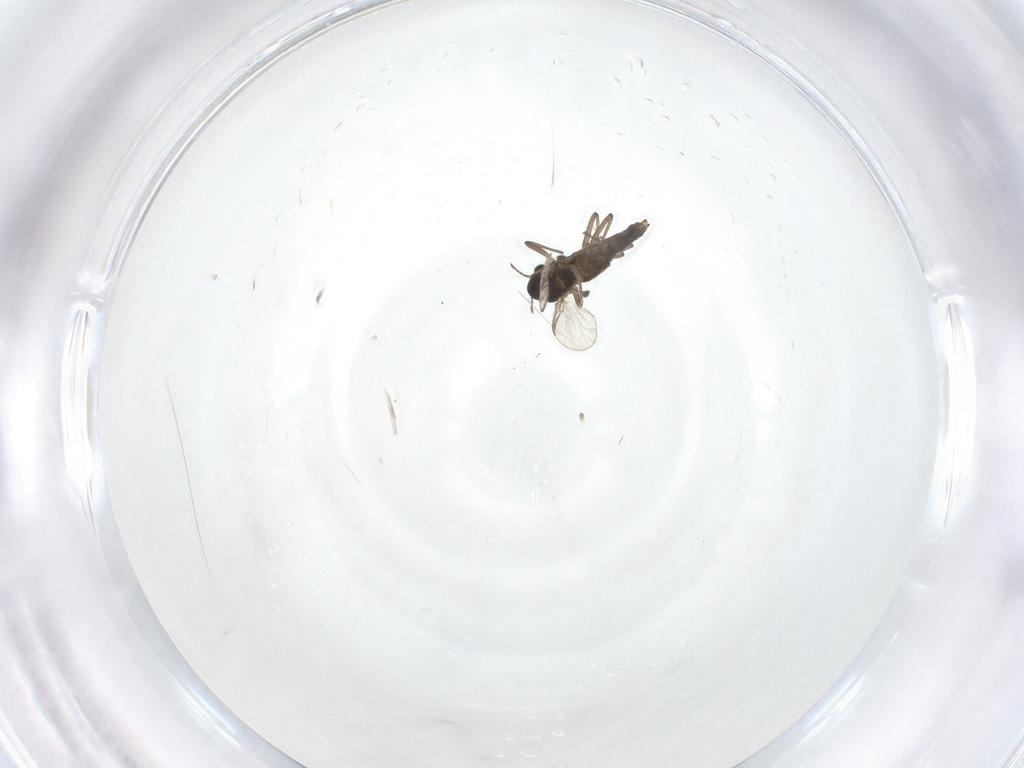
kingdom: Animalia
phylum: Arthropoda
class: Insecta
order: Diptera
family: Chironomidae
